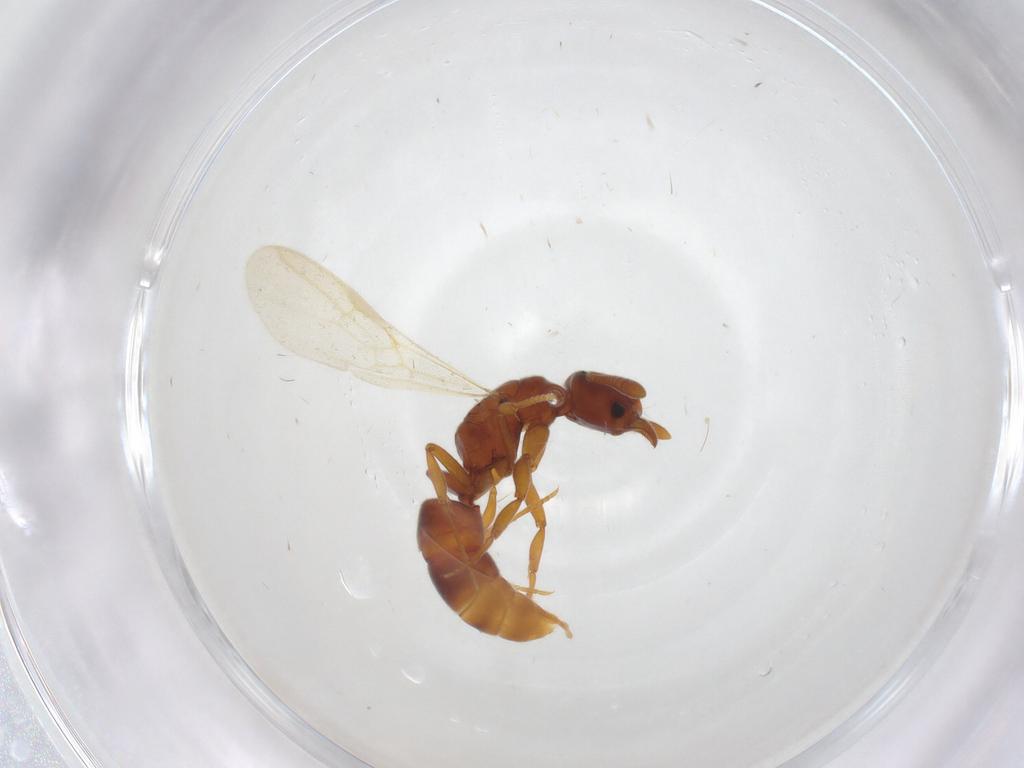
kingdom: Animalia
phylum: Arthropoda
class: Insecta
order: Hymenoptera
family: Formicidae
